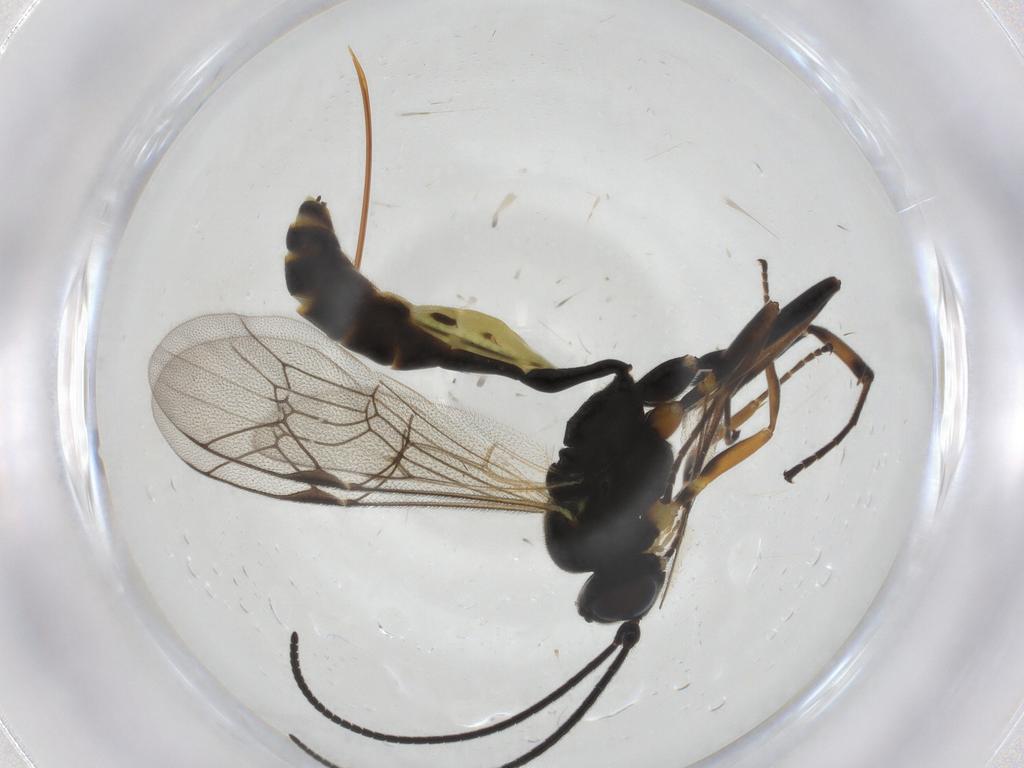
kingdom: Animalia
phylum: Arthropoda
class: Insecta
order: Hymenoptera
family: Ichneumonidae
